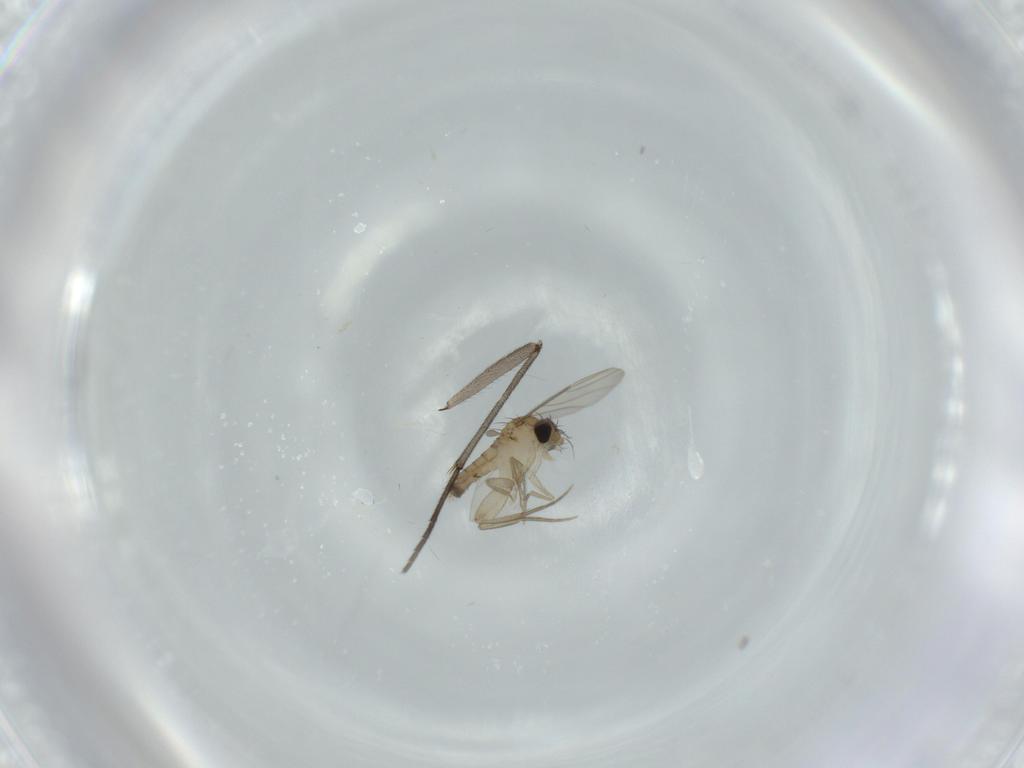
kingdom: Animalia
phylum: Arthropoda
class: Insecta
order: Diptera
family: Phoridae
